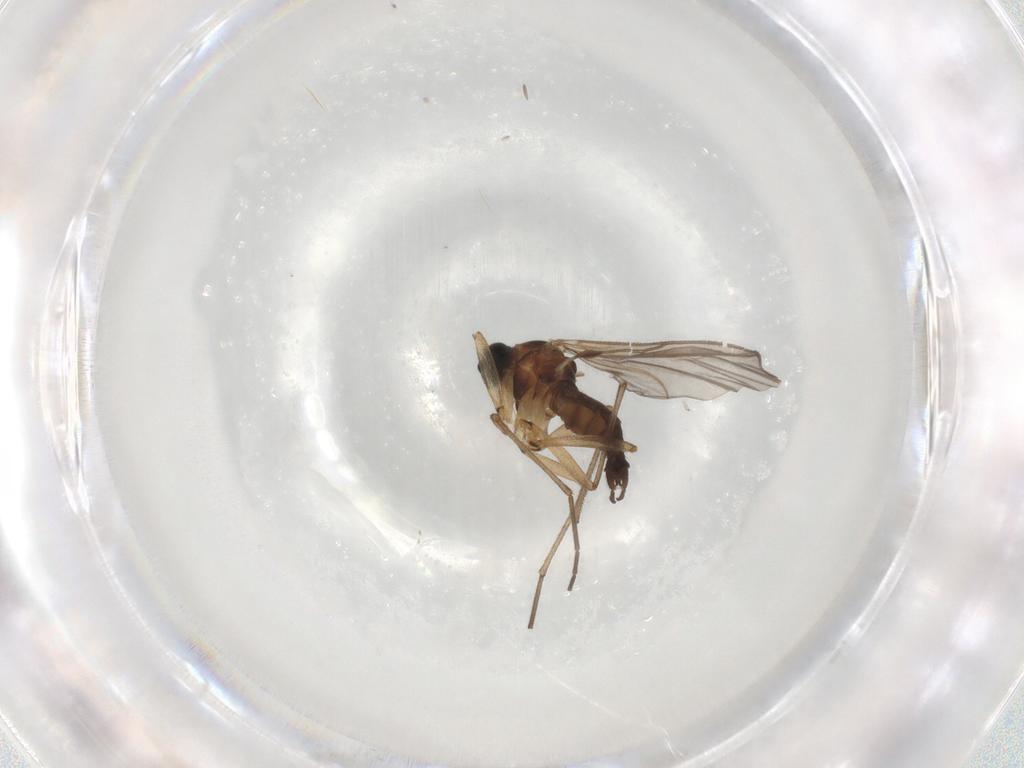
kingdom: Animalia
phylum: Arthropoda
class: Insecta
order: Diptera
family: Sciaridae
